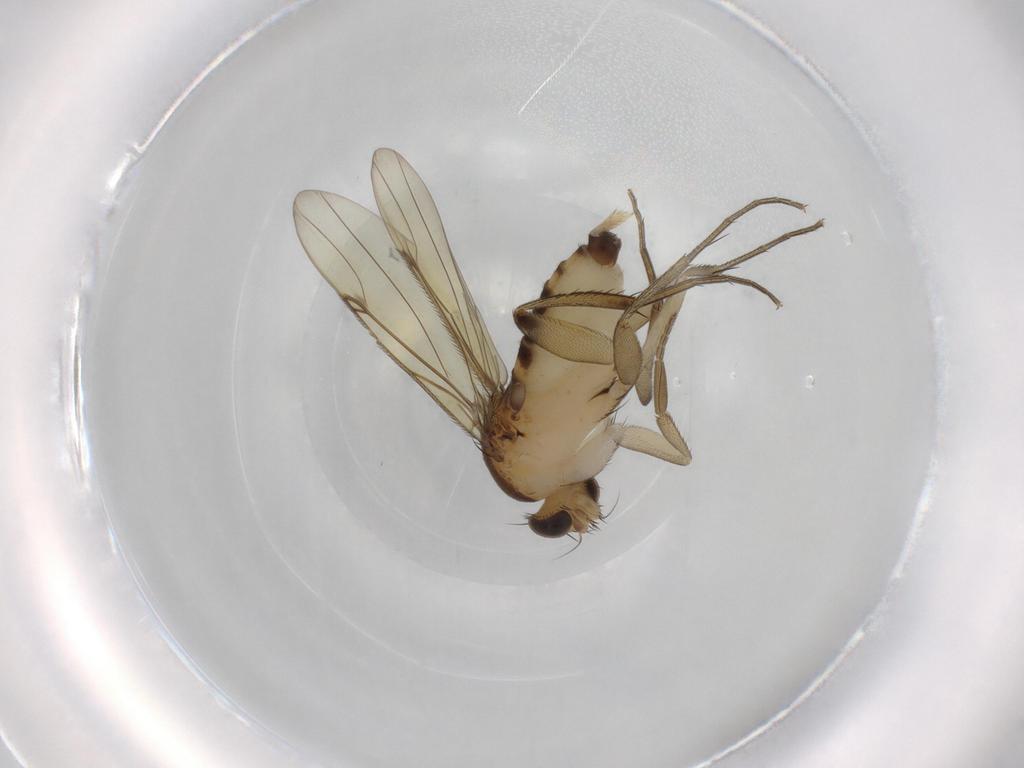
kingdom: Animalia
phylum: Arthropoda
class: Insecta
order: Diptera
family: Phoridae
